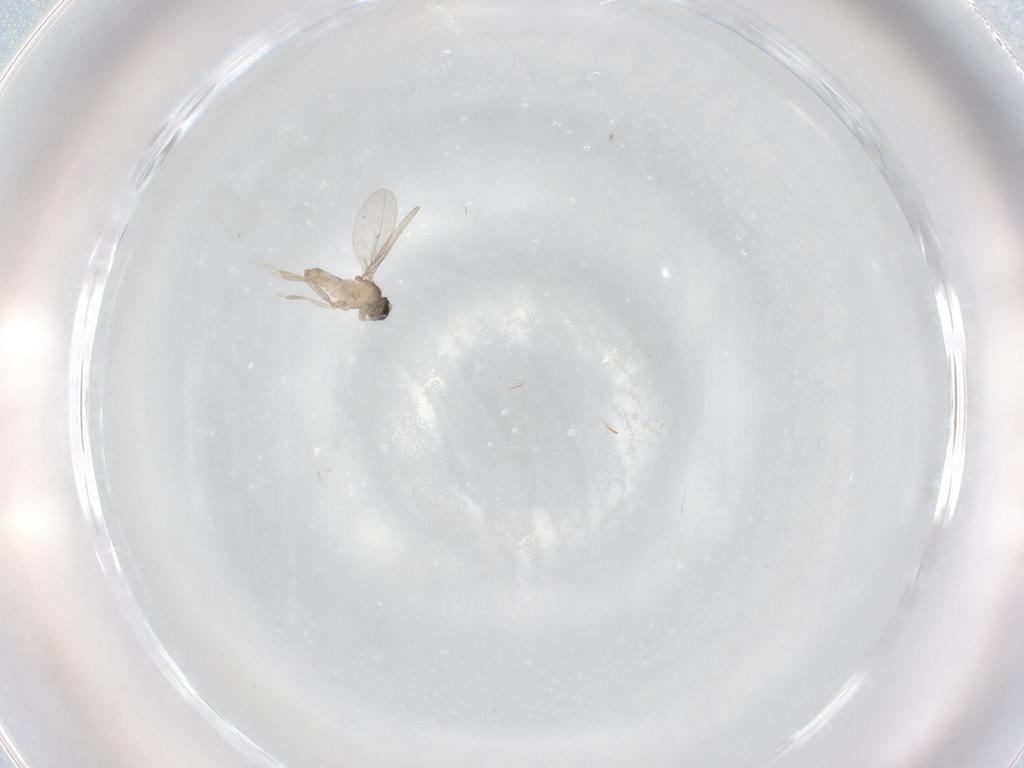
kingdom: Animalia
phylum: Arthropoda
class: Insecta
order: Diptera
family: Cecidomyiidae
